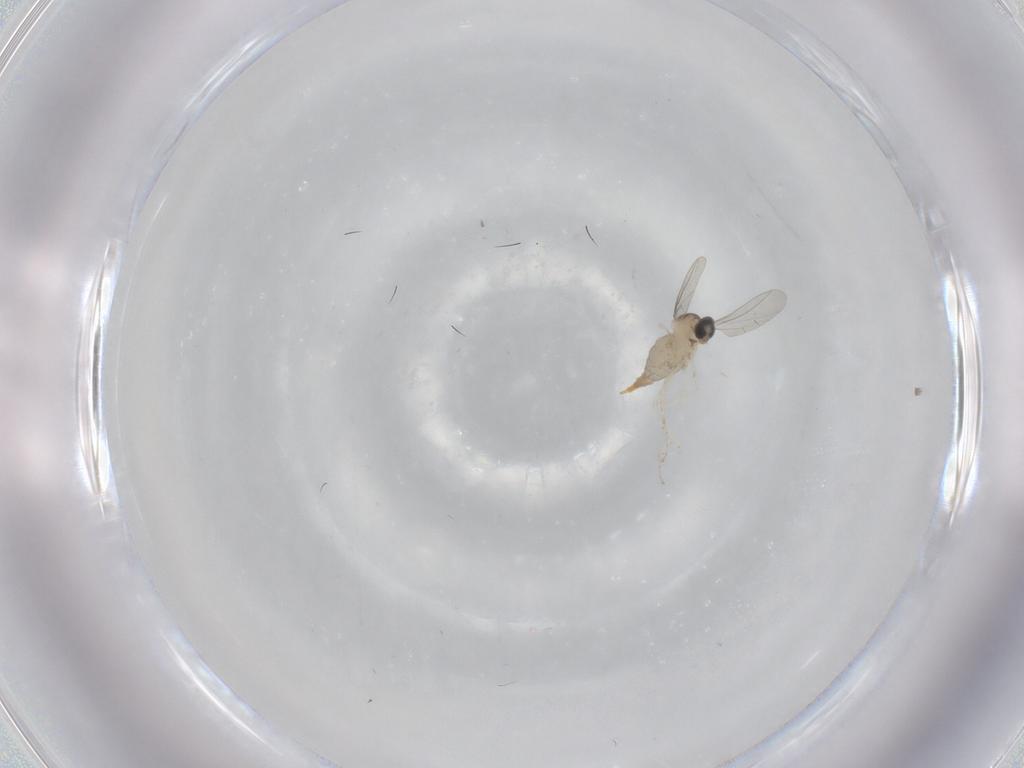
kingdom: Animalia
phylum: Arthropoda
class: Insecta
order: Diptera
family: Cecidomyiidae
